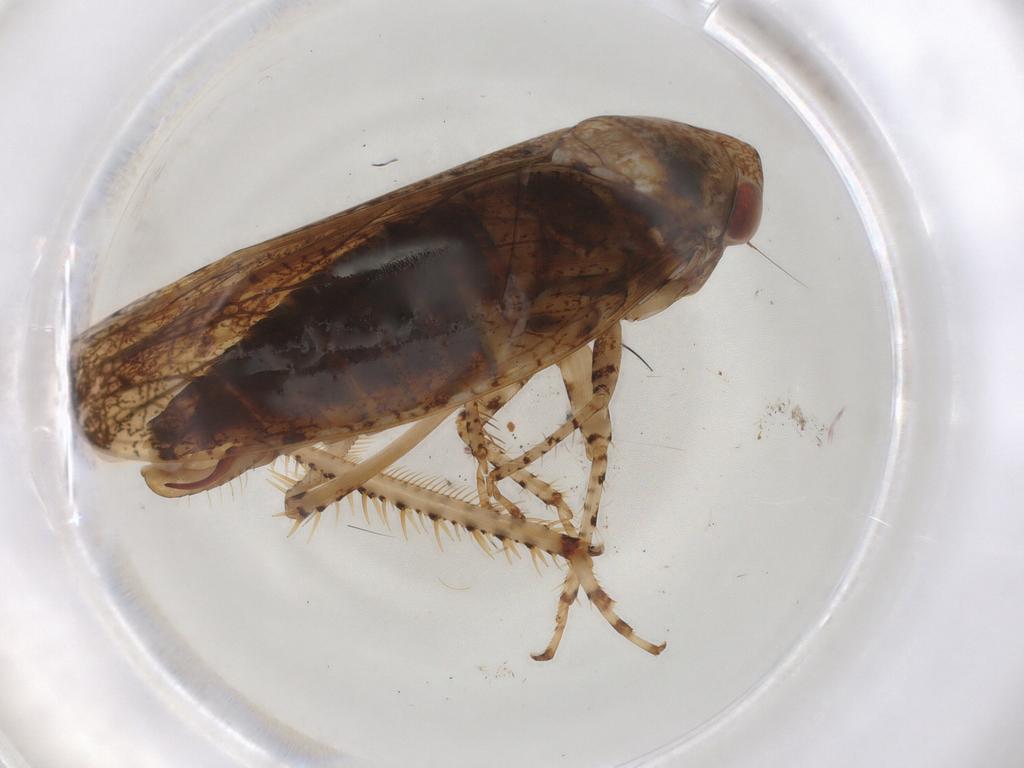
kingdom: Animalia
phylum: Arthropoda
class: Insecta
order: Hemiptera
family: Cicadellidae
